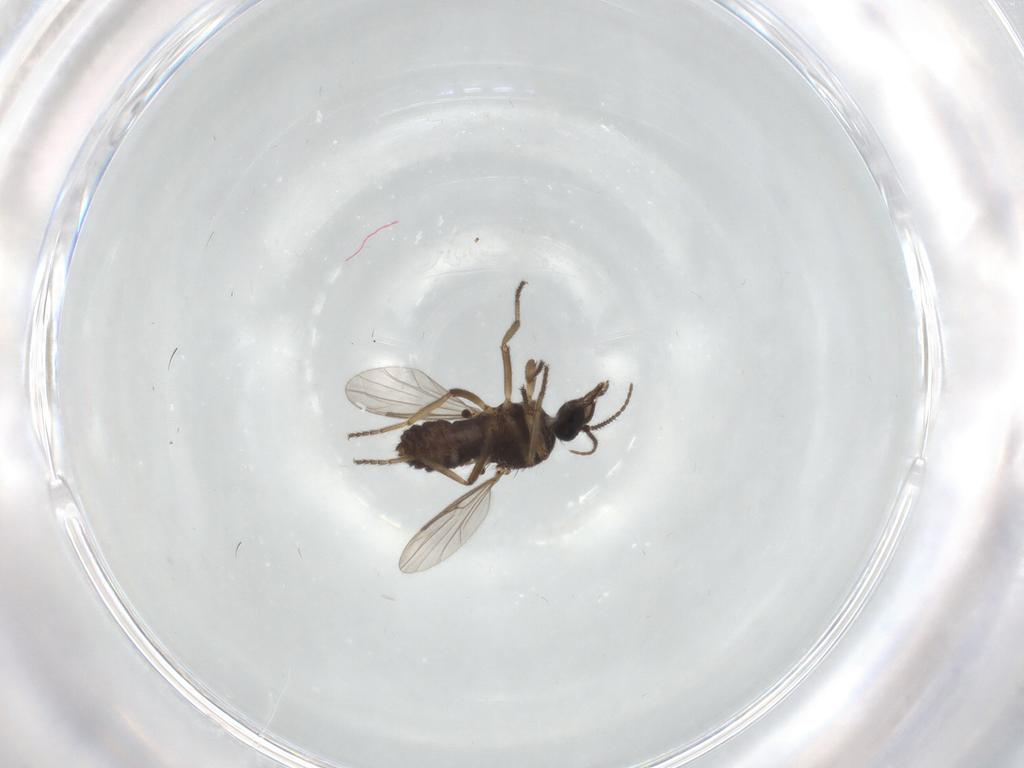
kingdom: Animalia
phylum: Arthropoda
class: Insecta
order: Diptera
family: Ceratopogonidae
